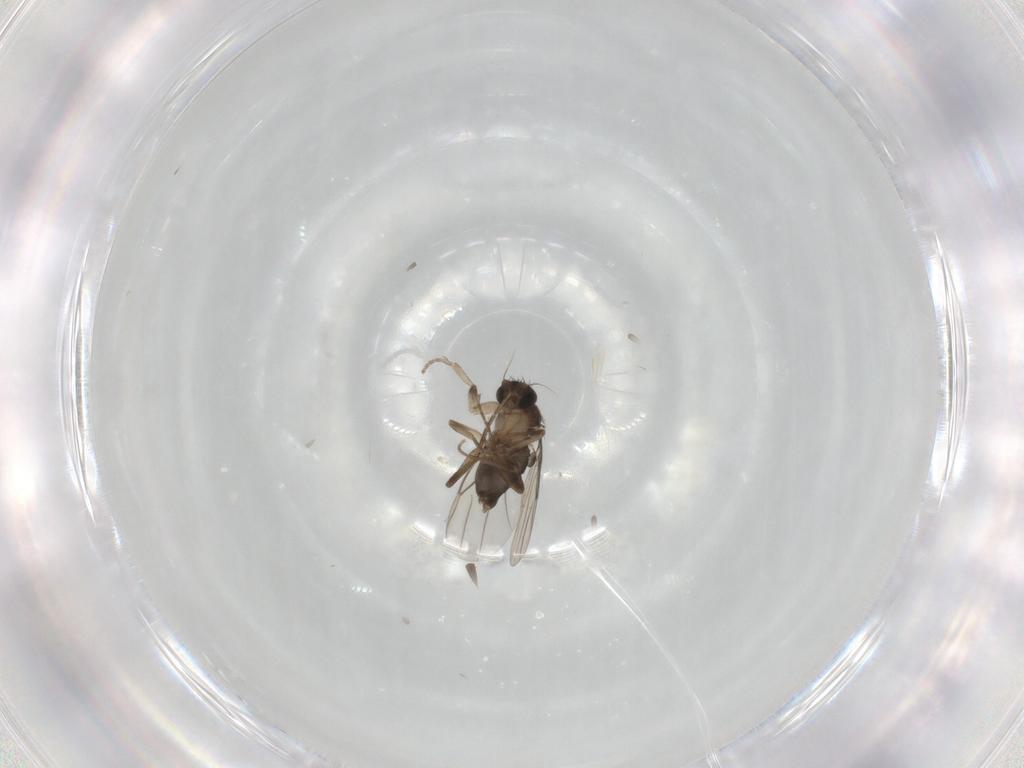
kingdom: Animalia
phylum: Arthropoda
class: Insecta
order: Diptera
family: Phoridae
